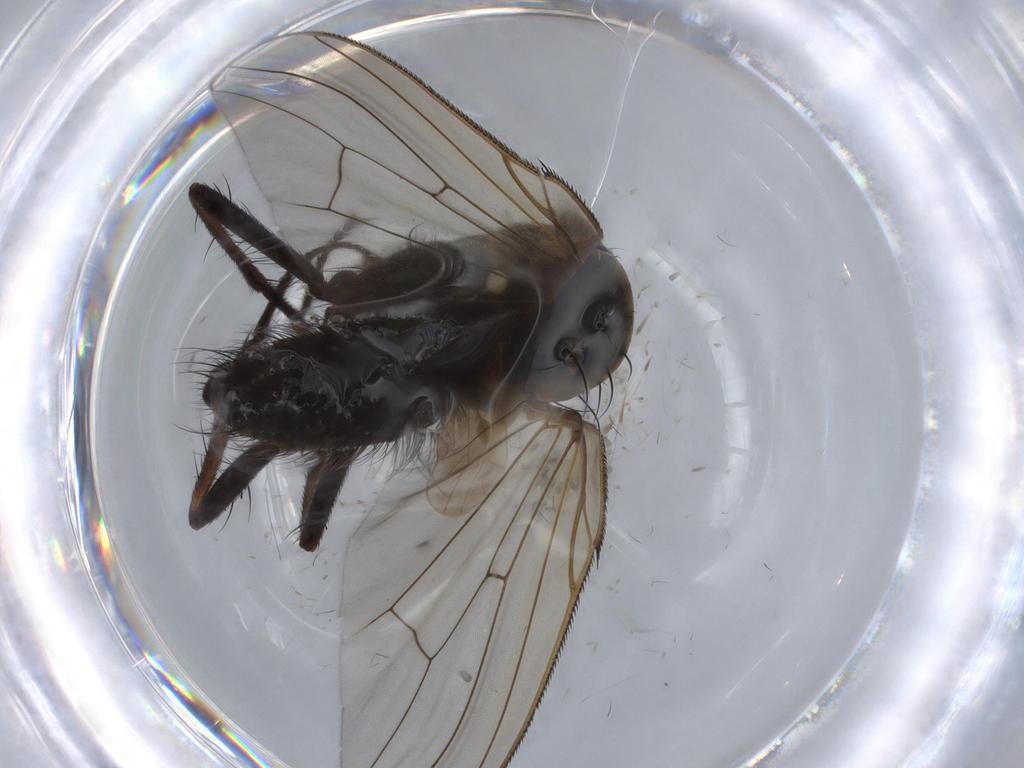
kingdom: Animalia
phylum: Arthropoda
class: Insecta
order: Diptera
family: Anthomyiidae
